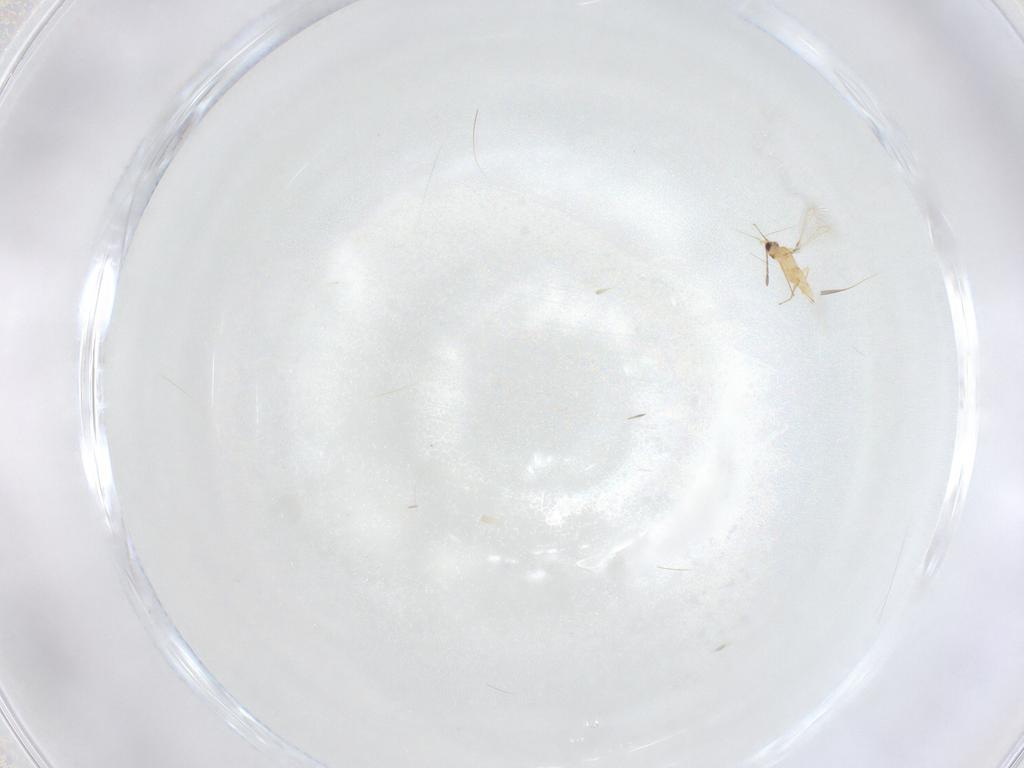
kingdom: Animalia
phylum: Arthropoda
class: Insecta
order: Hymenoptera
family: Mymaridae
